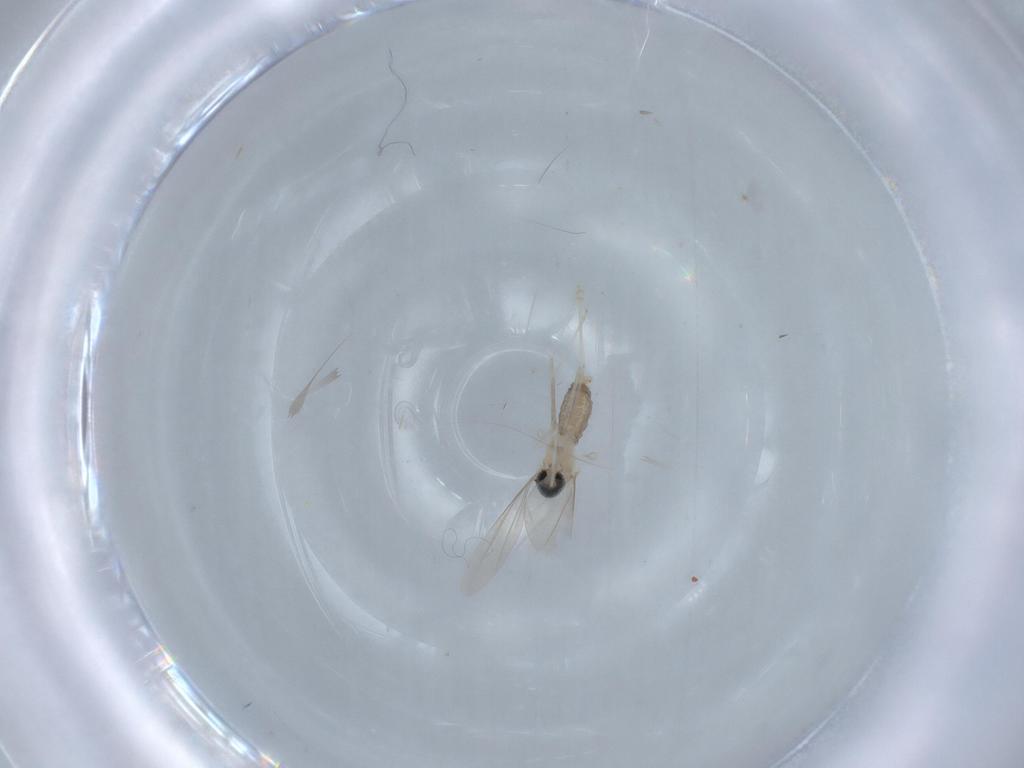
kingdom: Animalia
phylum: Arthropoda
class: Insecta
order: Diptera
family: Cecidomyiidae
